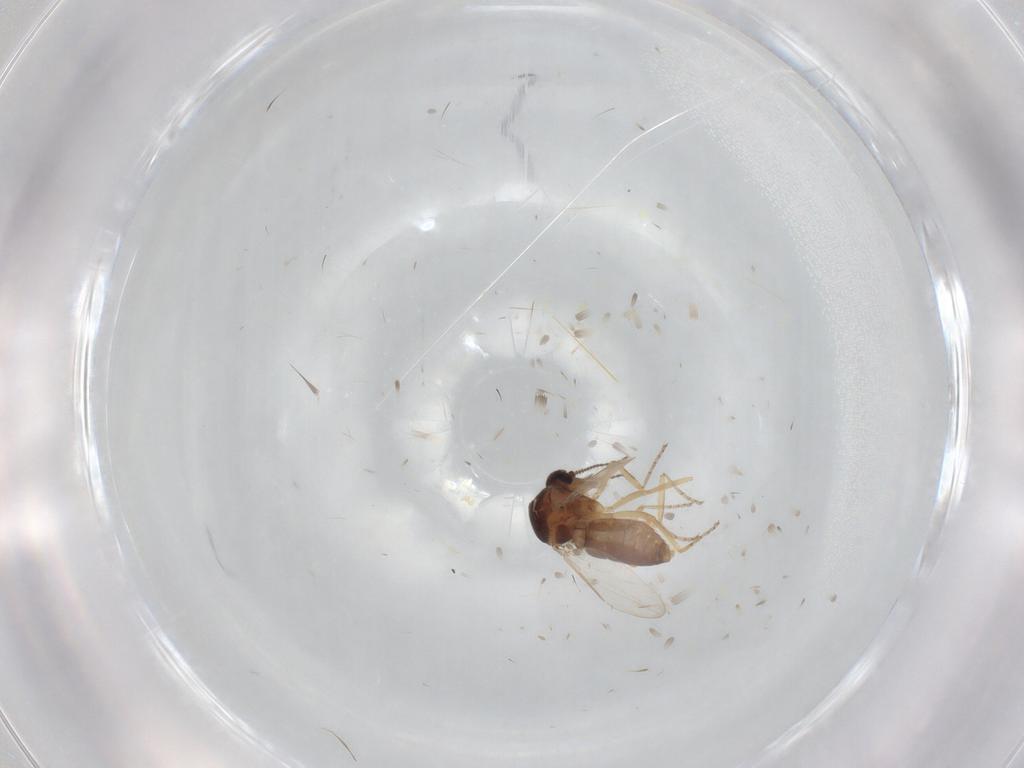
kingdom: Animalia
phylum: Arthropoda
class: Insecta
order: Diptera
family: Ceratopogonidae
